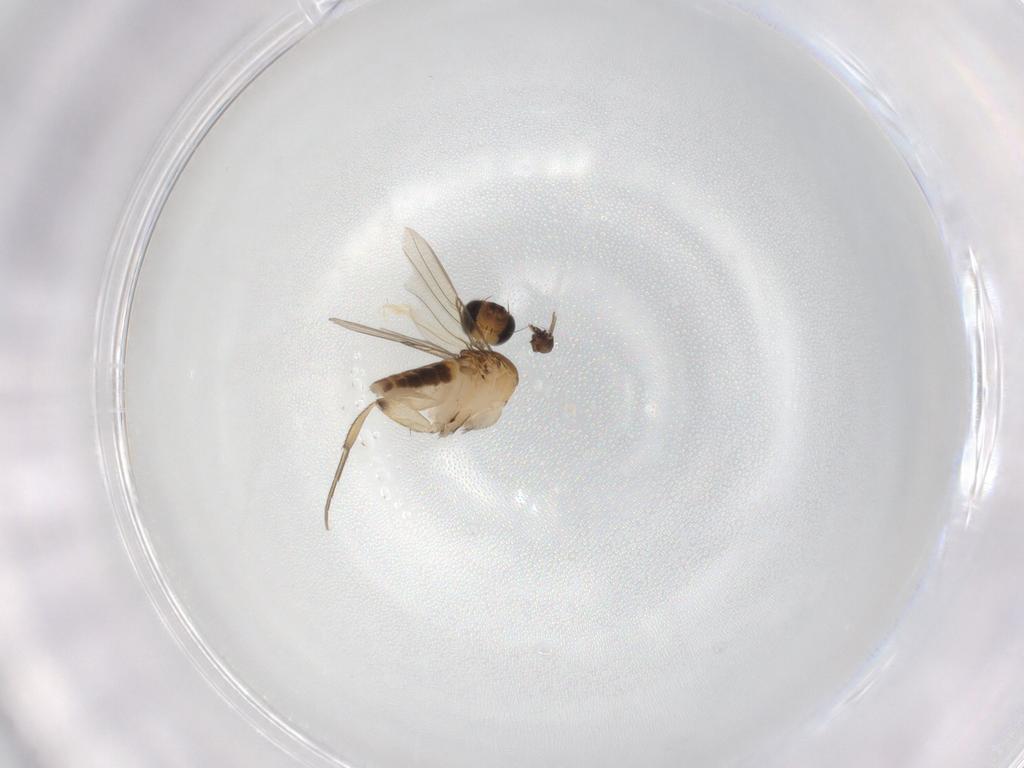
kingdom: Animalia
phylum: Arthropoda
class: Insecta
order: Diptera
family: Phoridae
